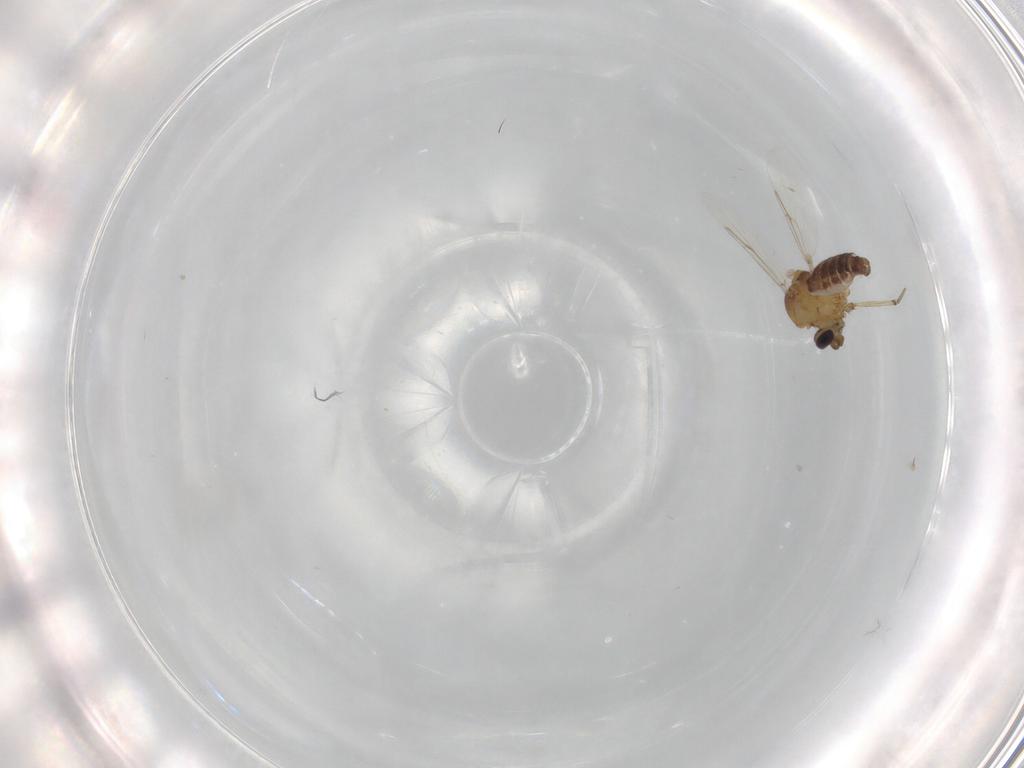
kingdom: Animalia
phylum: Arthropoda
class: Insecta
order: Diptera
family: Ceratopogonidae
